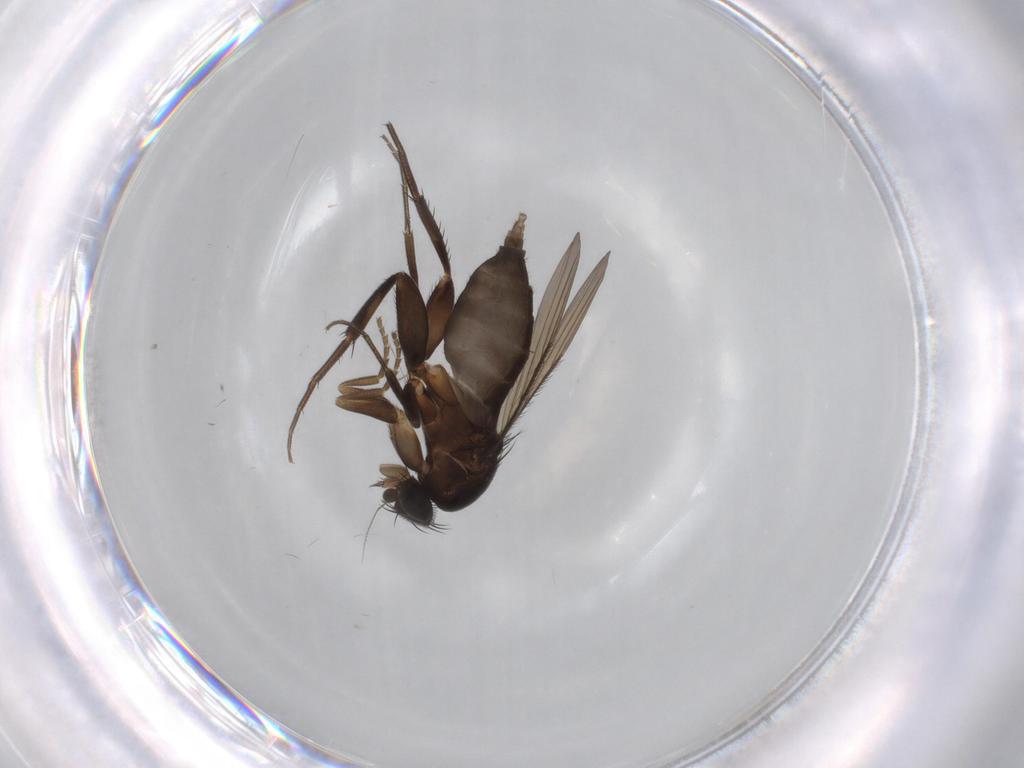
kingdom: Animalia
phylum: Arthropoda
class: Insecta
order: Diptera
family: Phoridae
